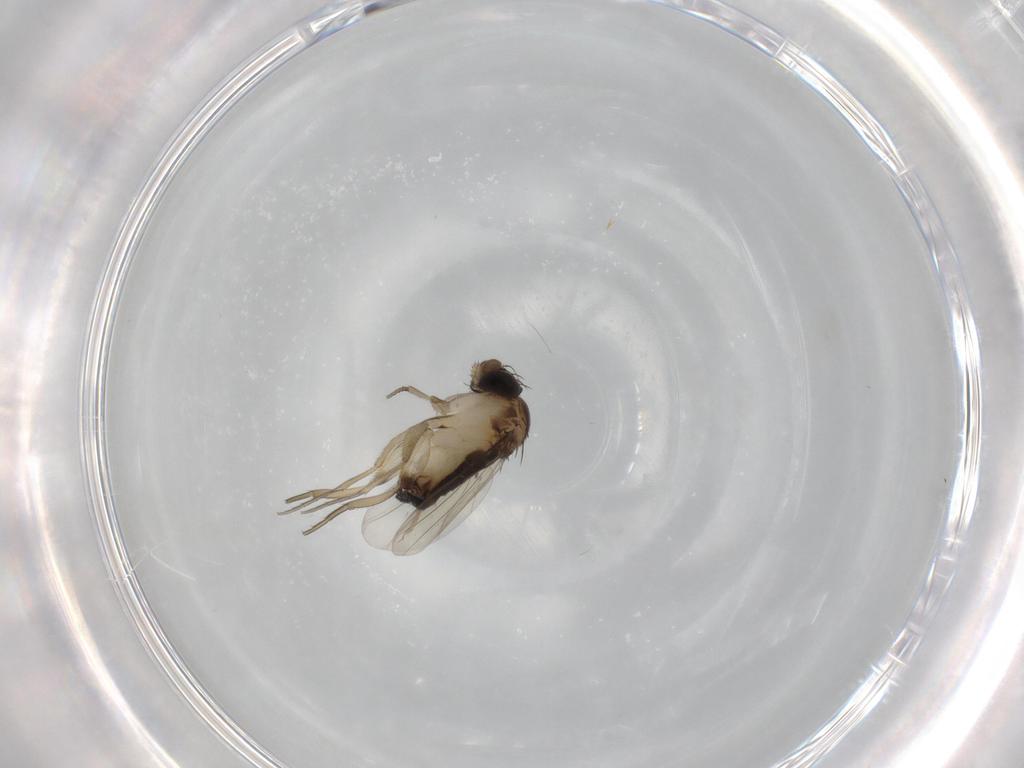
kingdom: Animalia
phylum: Arthropoda
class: Insecta
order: Diptera
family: Phoridae
